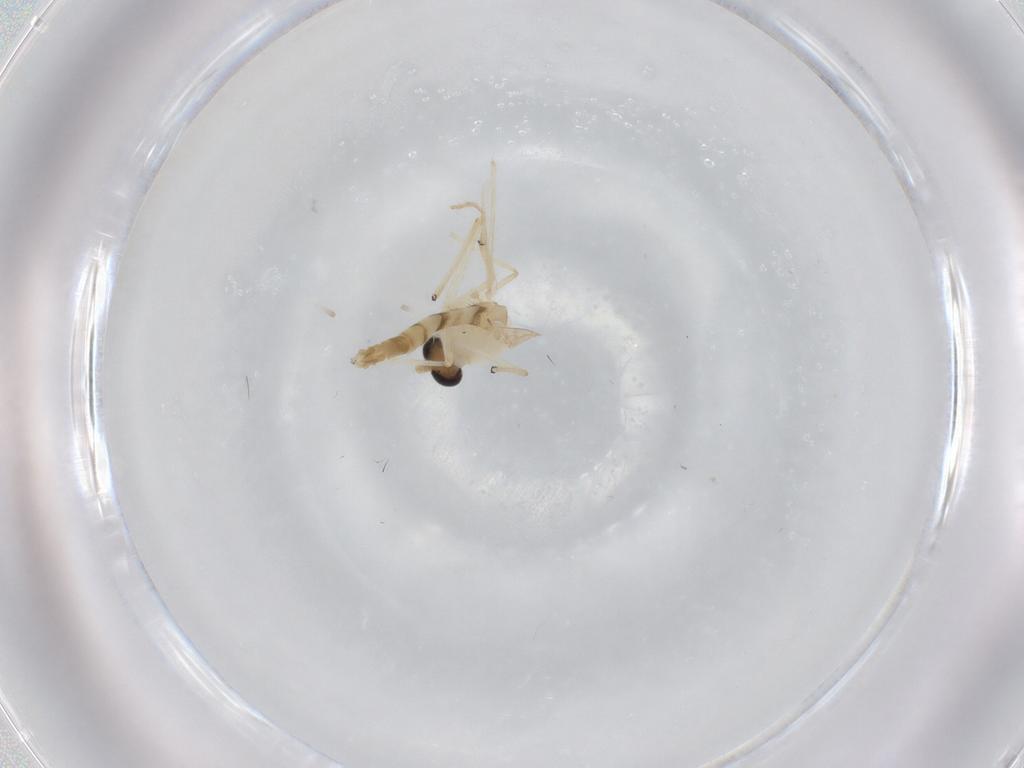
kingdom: Animalia
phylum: Arthropoda
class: Insecta
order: Diptera
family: Chironomidae
